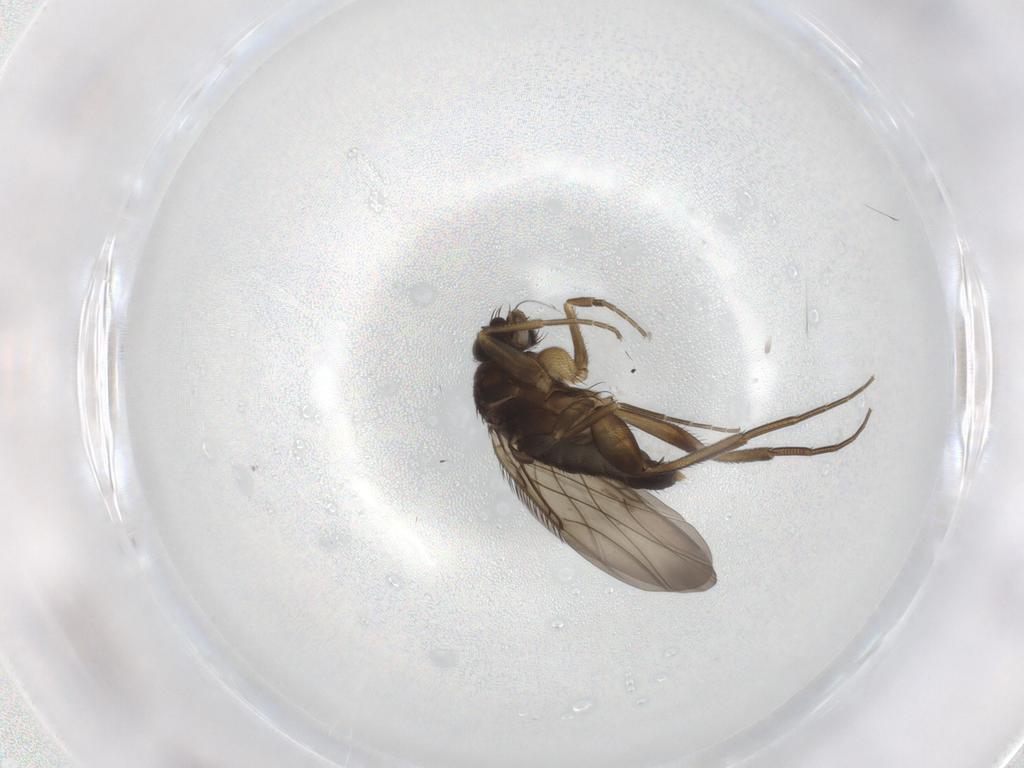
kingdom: Animalia
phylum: Arthropoda
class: Insecta
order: Diptera
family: Phoridae
